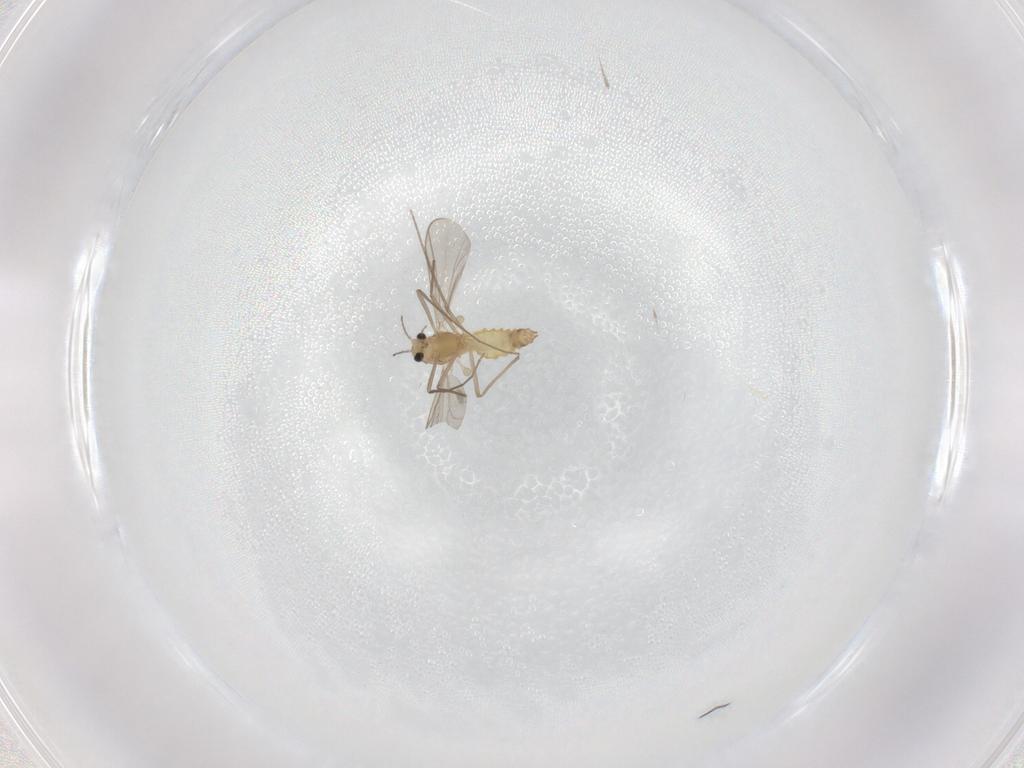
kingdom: Animalia
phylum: Arthropoda
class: Insecta
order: Diptera
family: Chironomidae
